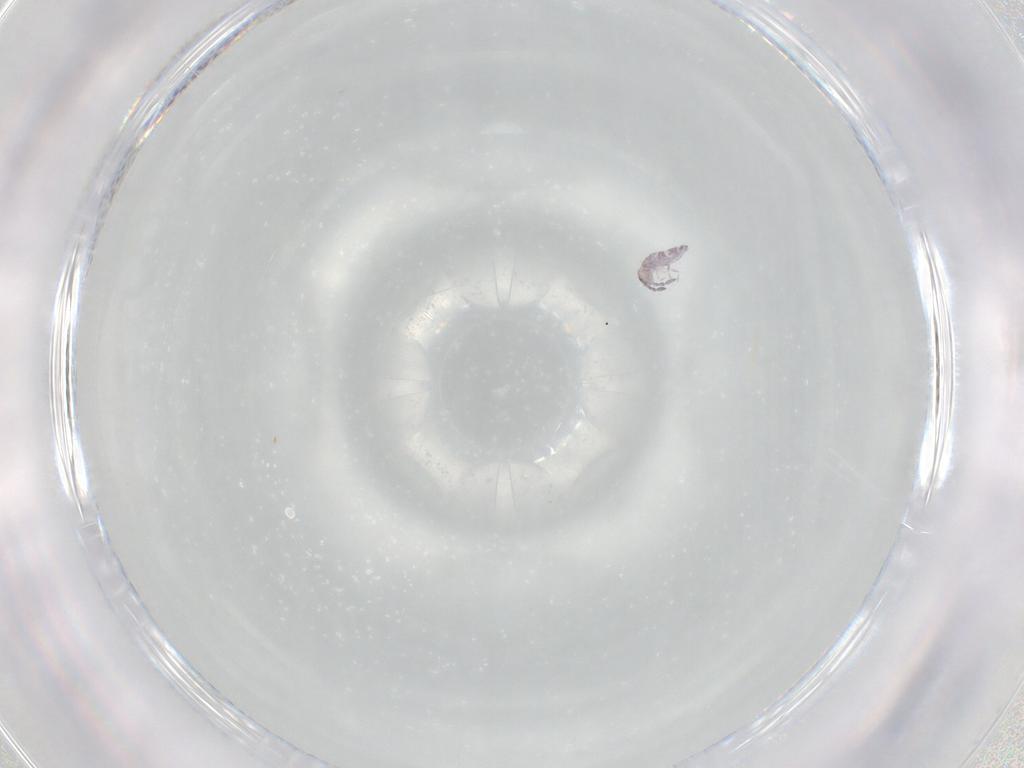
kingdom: Animalia
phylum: Arthropoda
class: Collembola
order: Entomobryomorpha
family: Entomobryidae
